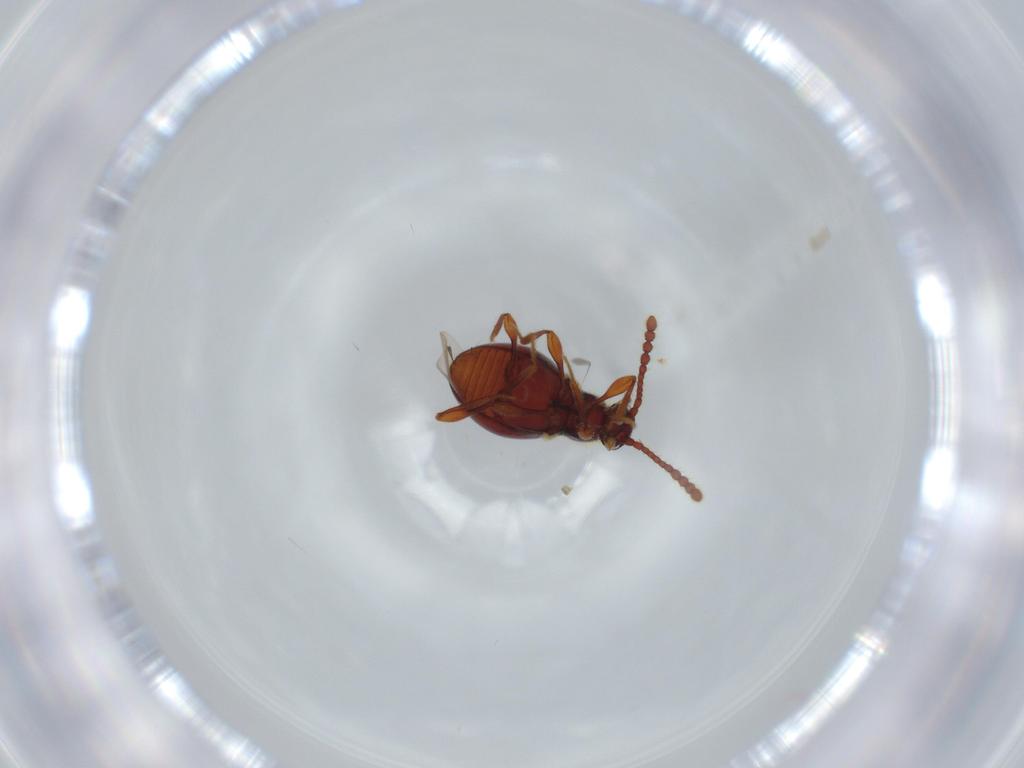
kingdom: Animalia
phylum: Arthropoda
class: Insecta
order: Coleoptera
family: Staphylinidae
